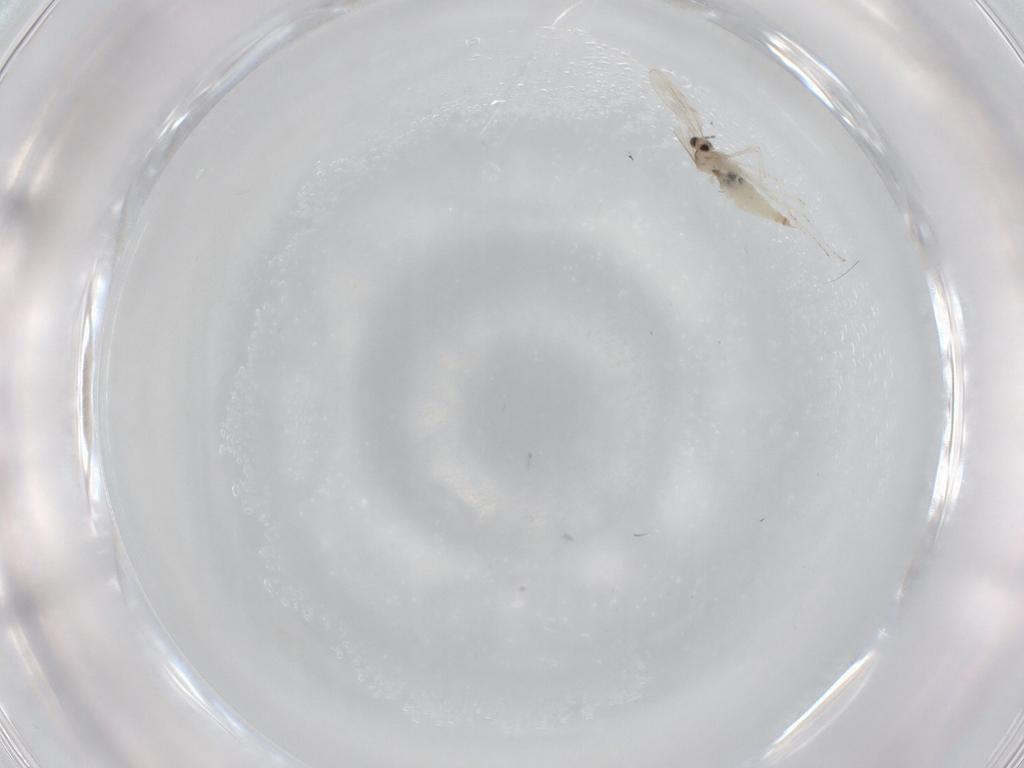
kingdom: Animalia
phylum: Arthropoda
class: Insecta
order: Diptera
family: Cecidomyiidae
